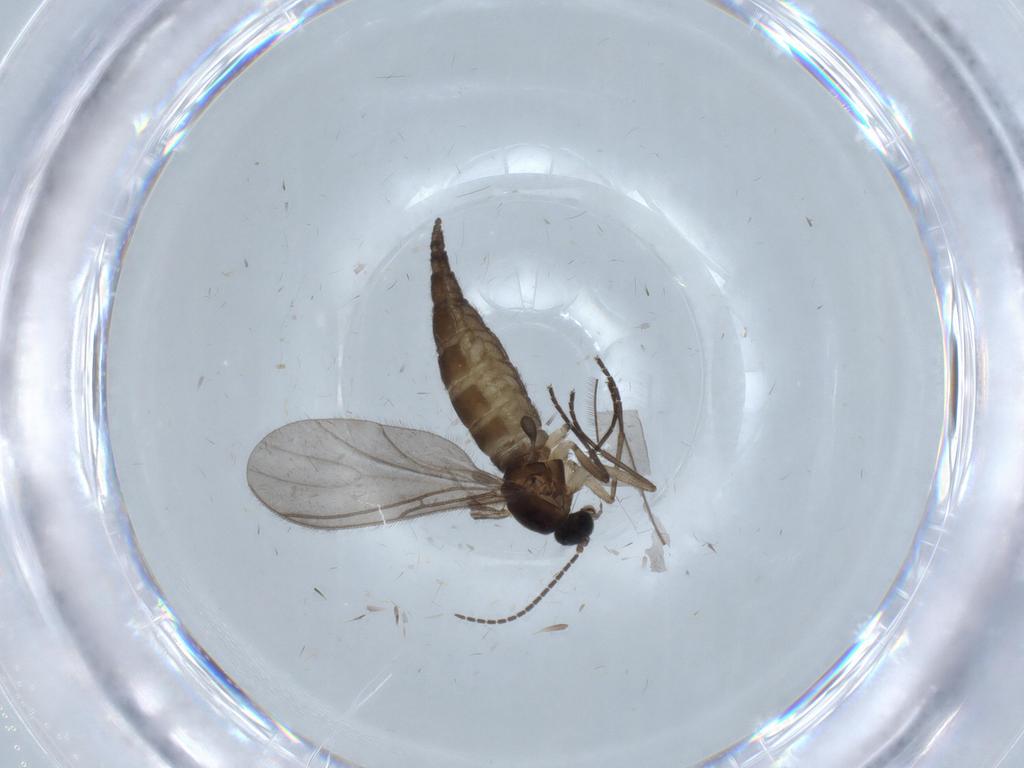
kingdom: Animalia
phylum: Arthropoda
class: Insecta
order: Diptera
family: Sciaridae
